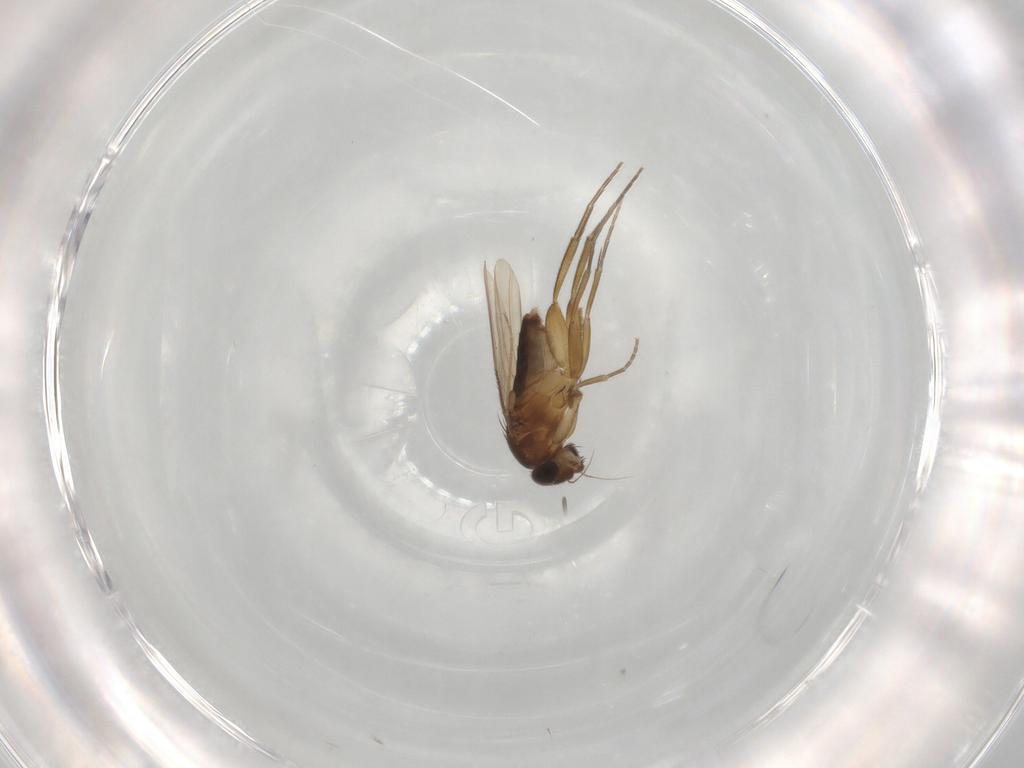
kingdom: Animalia
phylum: Arthropoda
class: Insecta
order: Diptera
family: Phoridae
